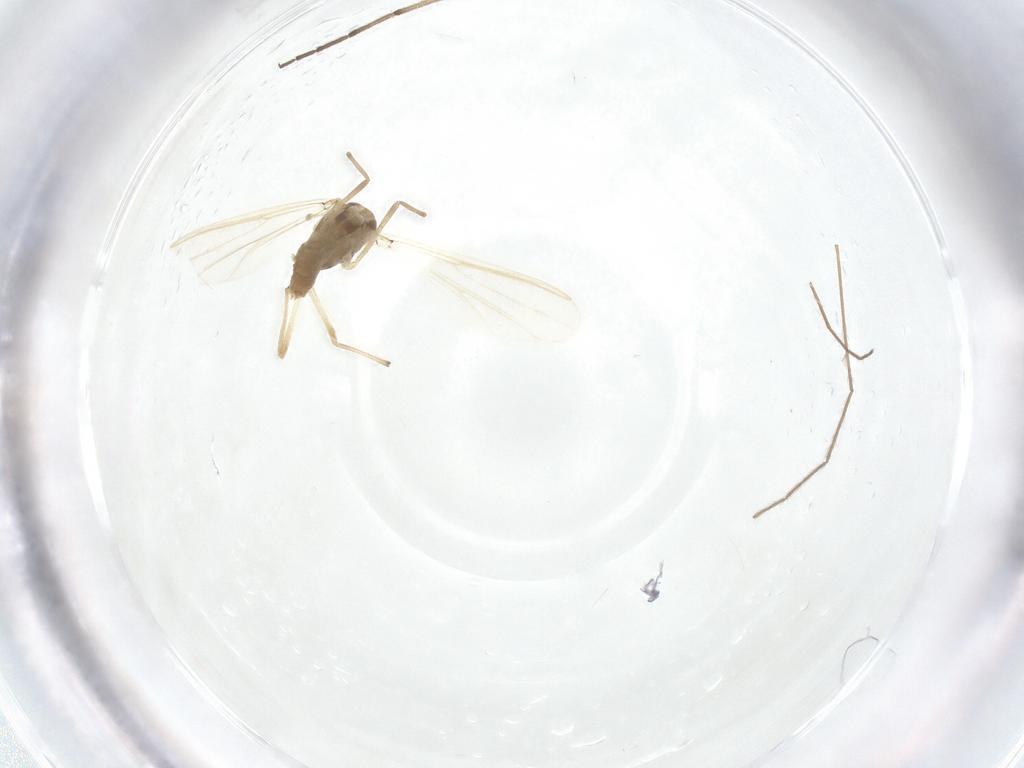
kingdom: Animalia
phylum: Arthropoda
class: Insecta
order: Diptera
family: Chironomidae
